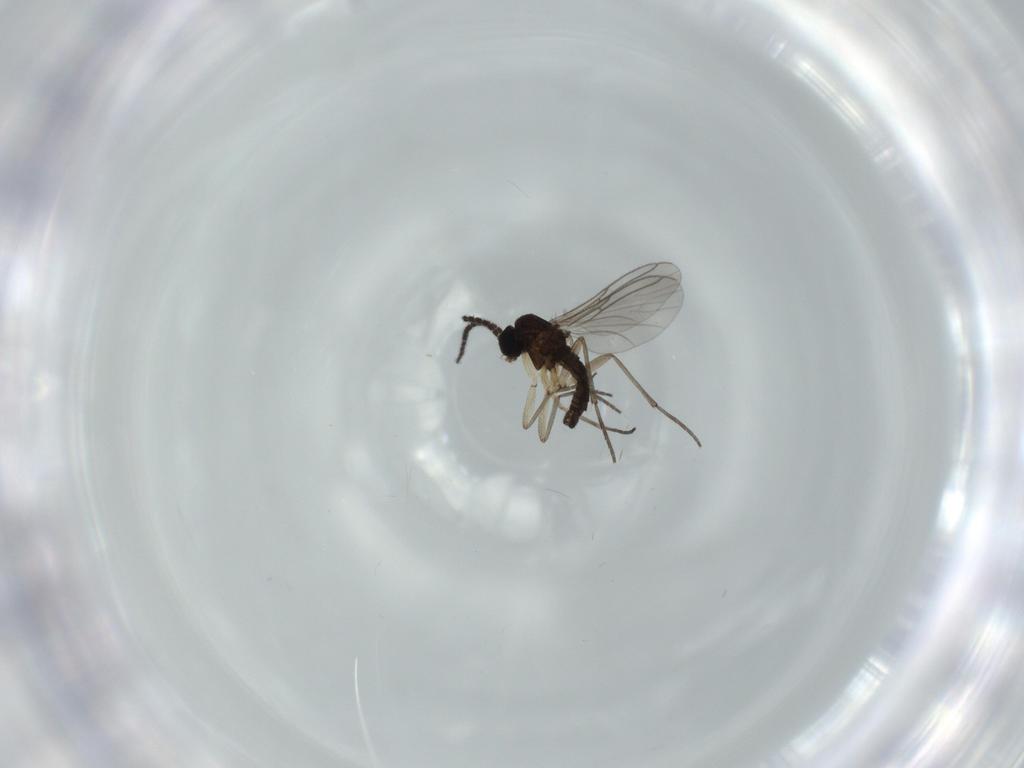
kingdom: Animalia
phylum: Arthropoda
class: Insecta
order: Diptera
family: Sciaridae
